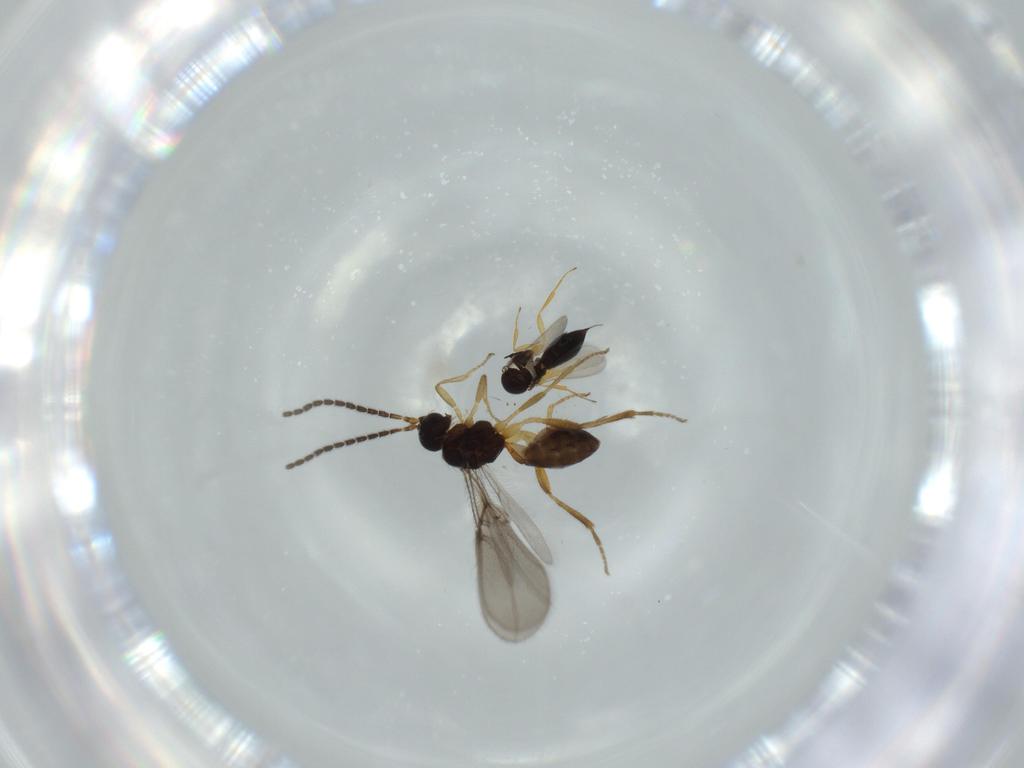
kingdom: Animalia
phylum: Arthropoda
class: Insecta
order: Hymenoptera
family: Scelionidae
